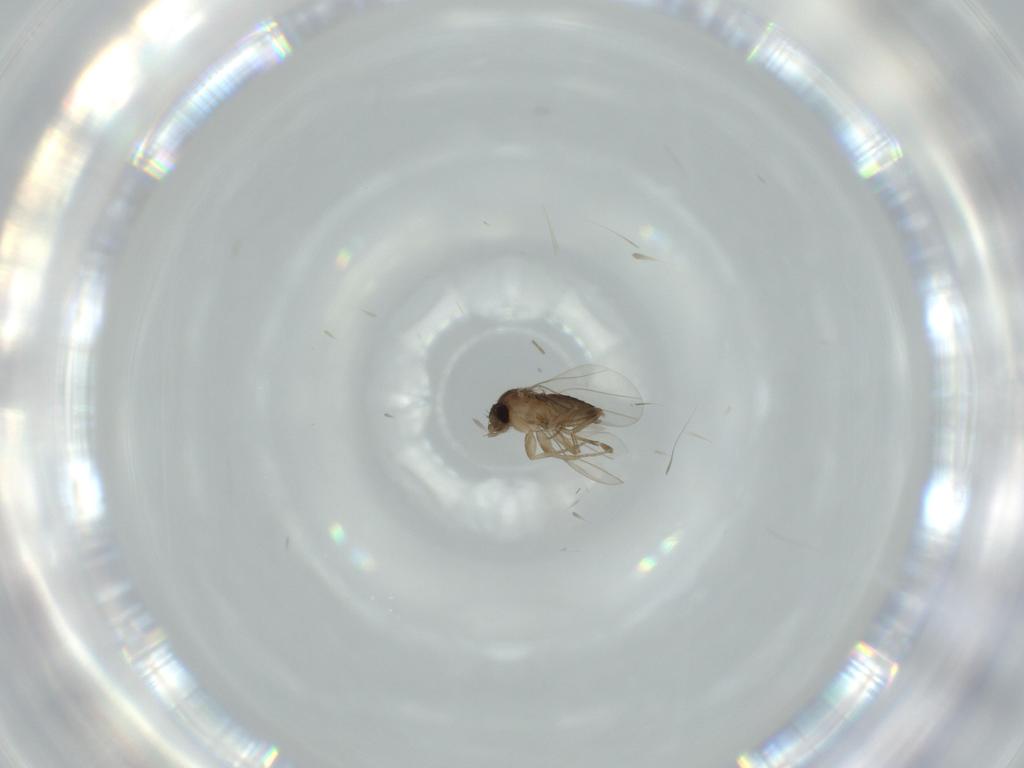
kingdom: Animalia
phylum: Arthropoda
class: Insecta
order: Diptera
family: Phoridae
